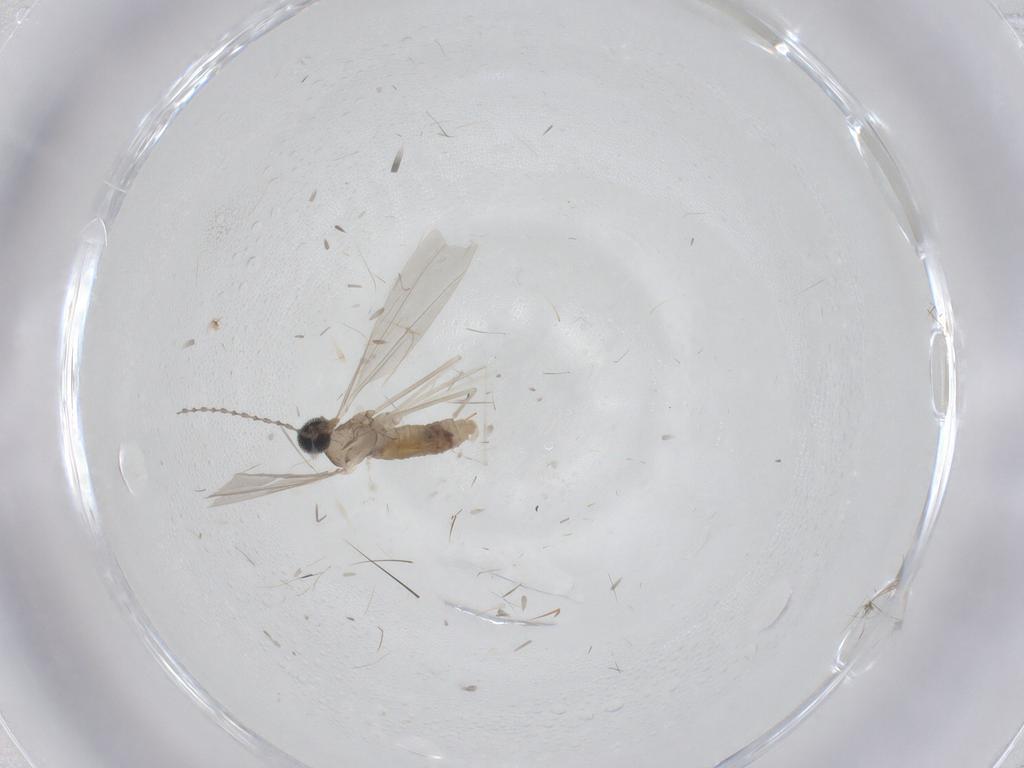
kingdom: Animalia
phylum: Arthropoda
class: Insecta
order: Diptera
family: Cecidomyiidae
